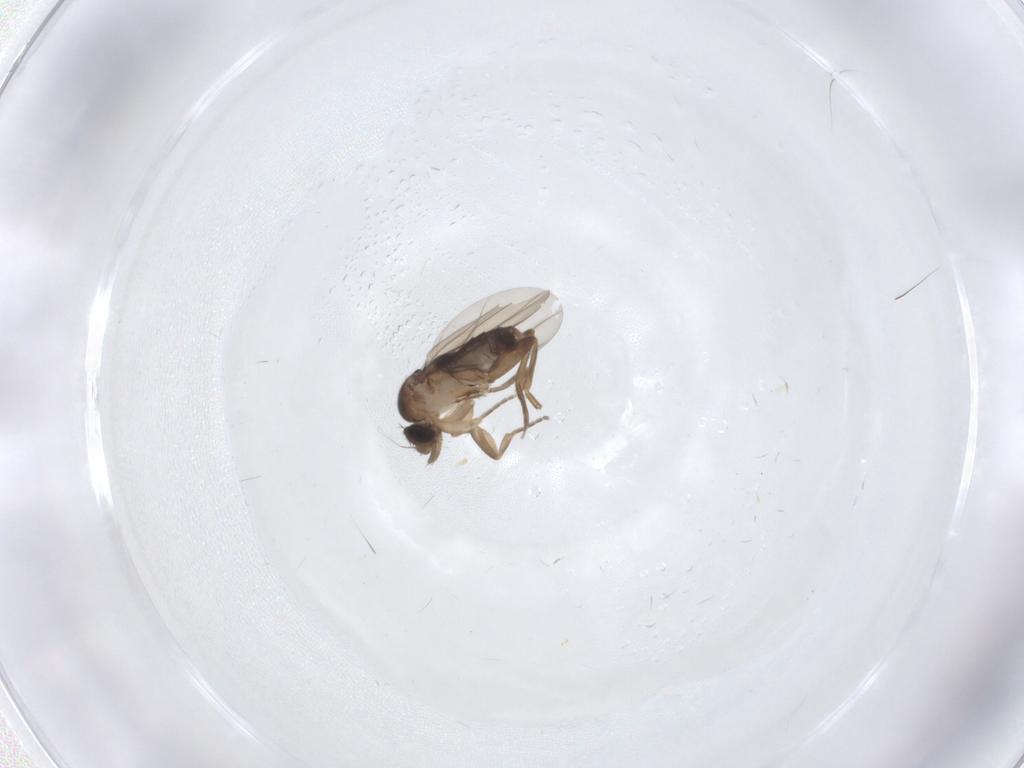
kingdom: Animalia
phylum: Arthropoda
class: Insecta
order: Diptera
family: Phoridae
